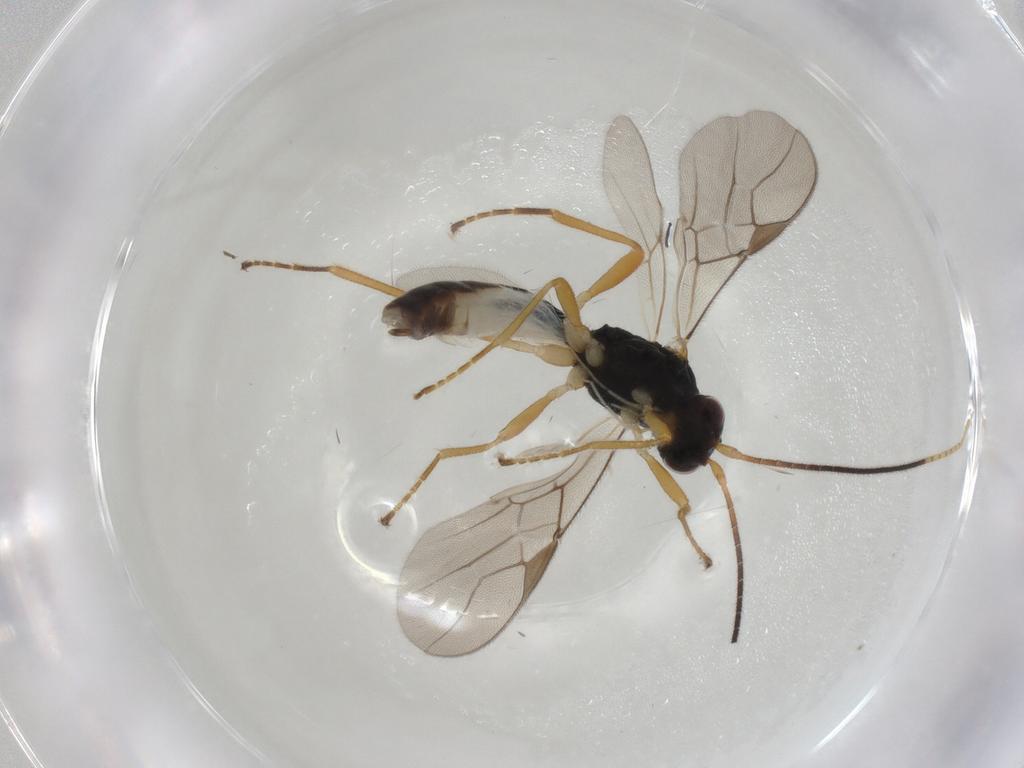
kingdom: Animalia
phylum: Arthropoda
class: Insecta
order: Hymenoptera
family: Braconidae
